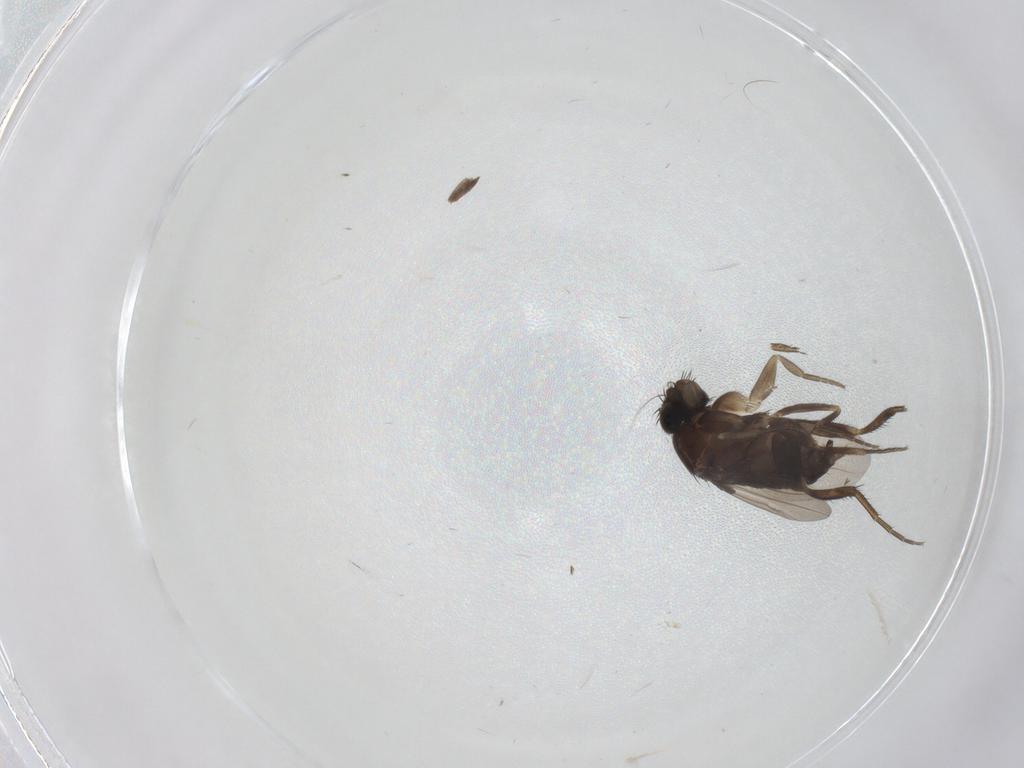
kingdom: Animalia
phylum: Arthropoda
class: Insecta
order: Diptera
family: Phoridae
